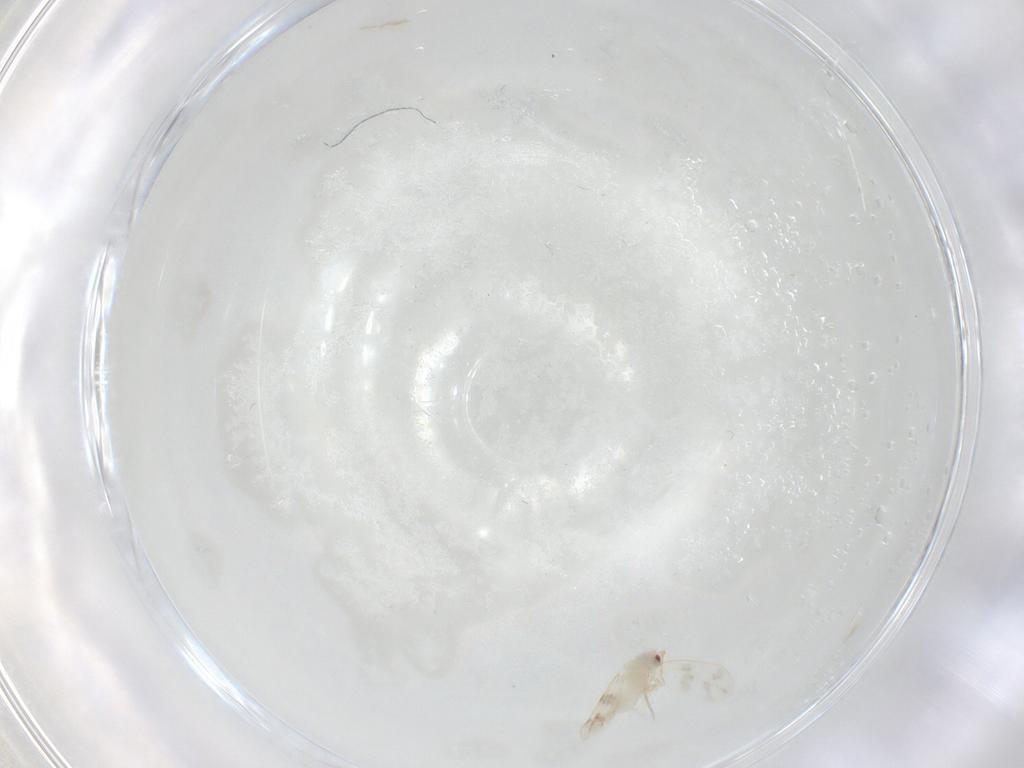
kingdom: Animalia
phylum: Arthropoda
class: Insecta
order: Hemiptera
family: Aleyrodidae
